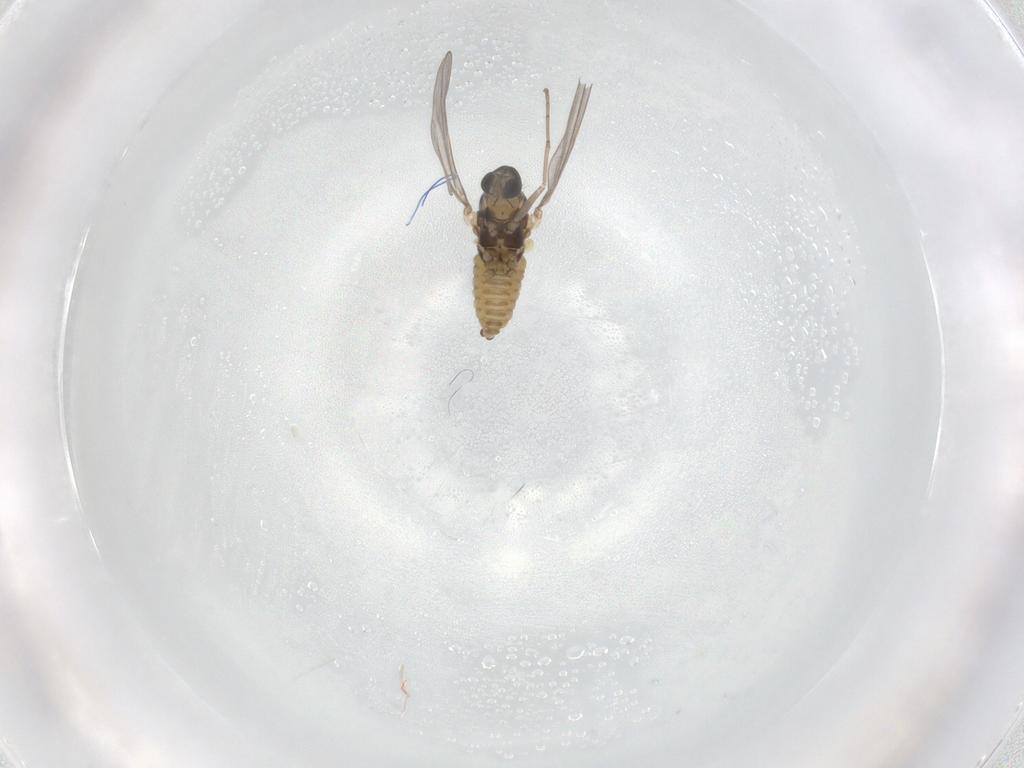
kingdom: Animalia
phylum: Arthropoda
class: Insecta
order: Diptera
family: Cecidomyiidae
